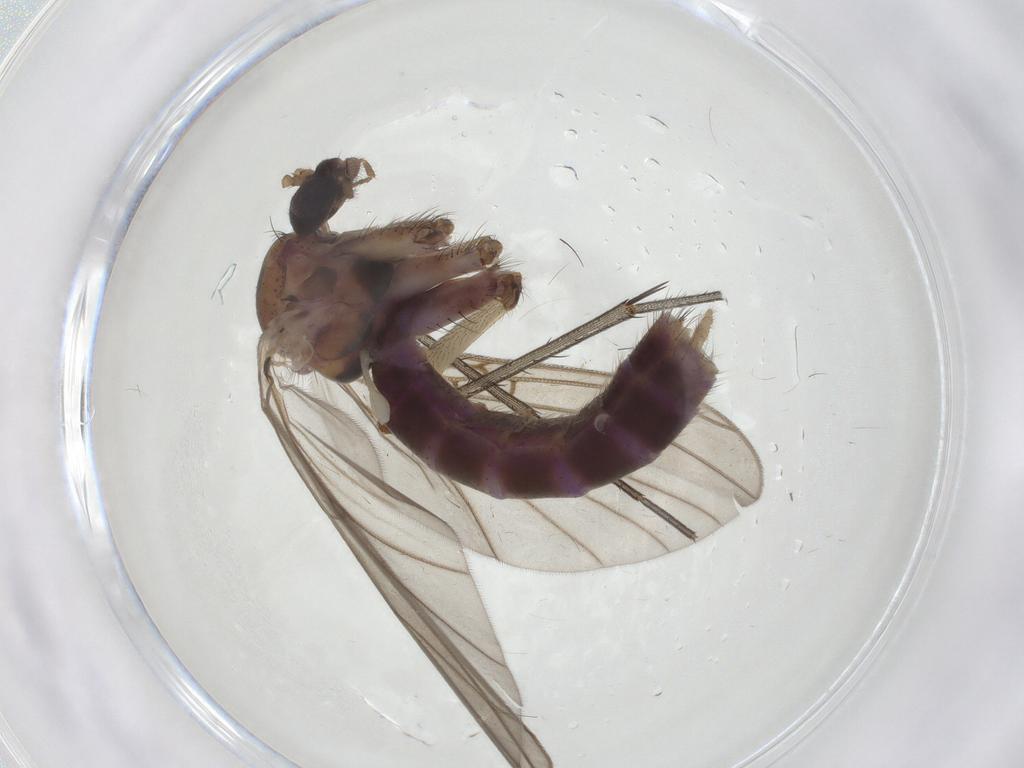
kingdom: Animalia
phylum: Arthropoda
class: Insecta
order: Diptera
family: Mycetophilidae
